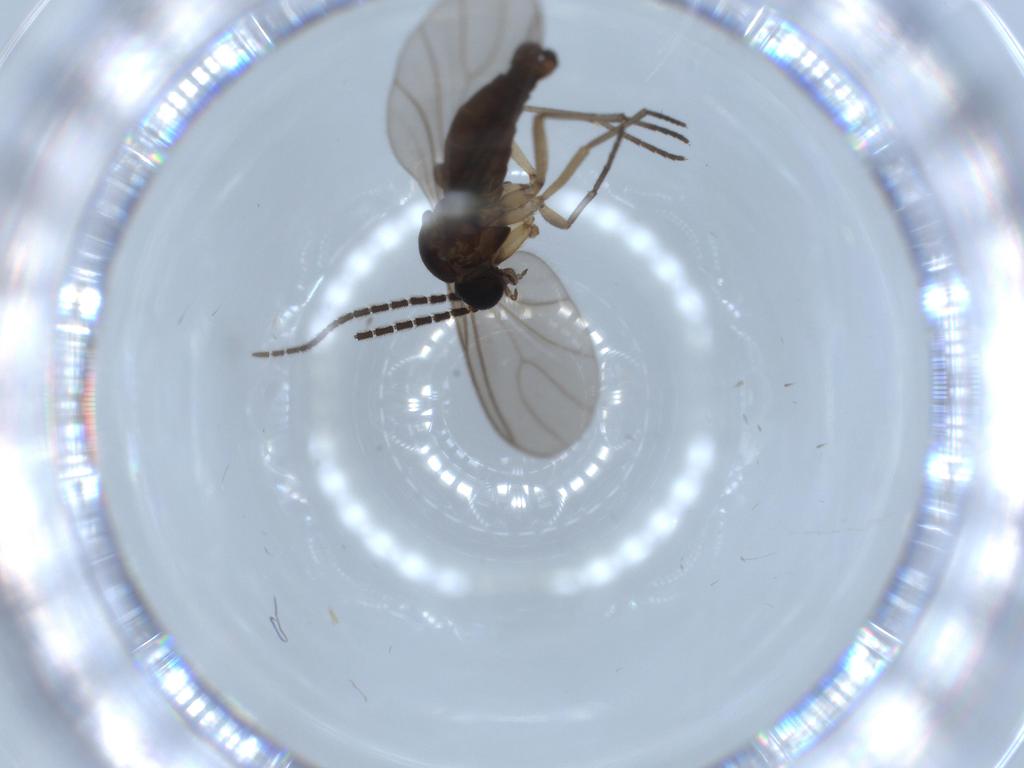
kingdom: Animalia
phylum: Arthropoda
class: Insecta
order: Diptera
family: Sciaridae
